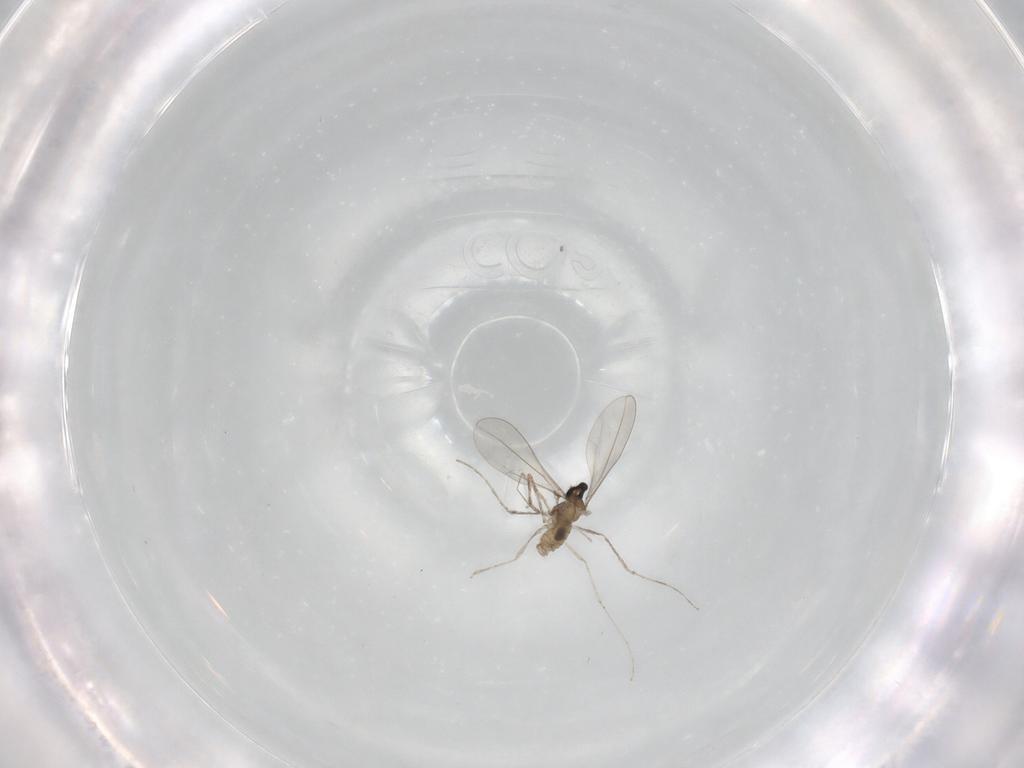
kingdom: Animalia
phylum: Arthropoda
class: Insecta
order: Diptera
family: Cecidomyiidae
